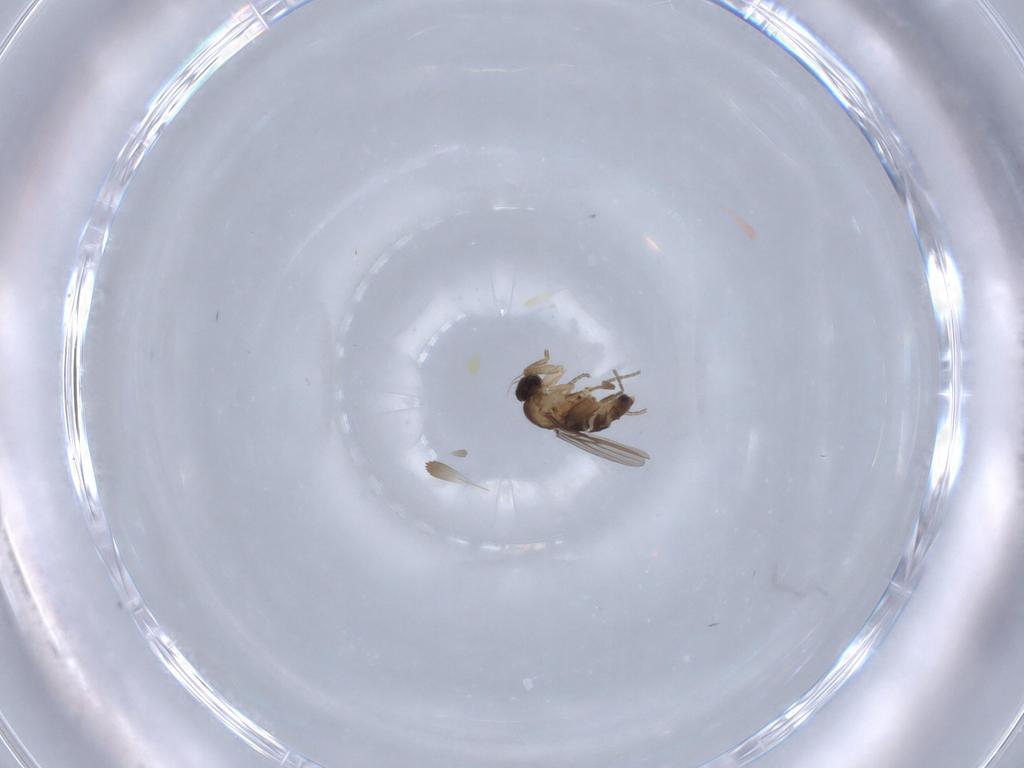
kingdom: Animalia
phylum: Arthropoda
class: Insecta
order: Diptera
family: Phoridae
